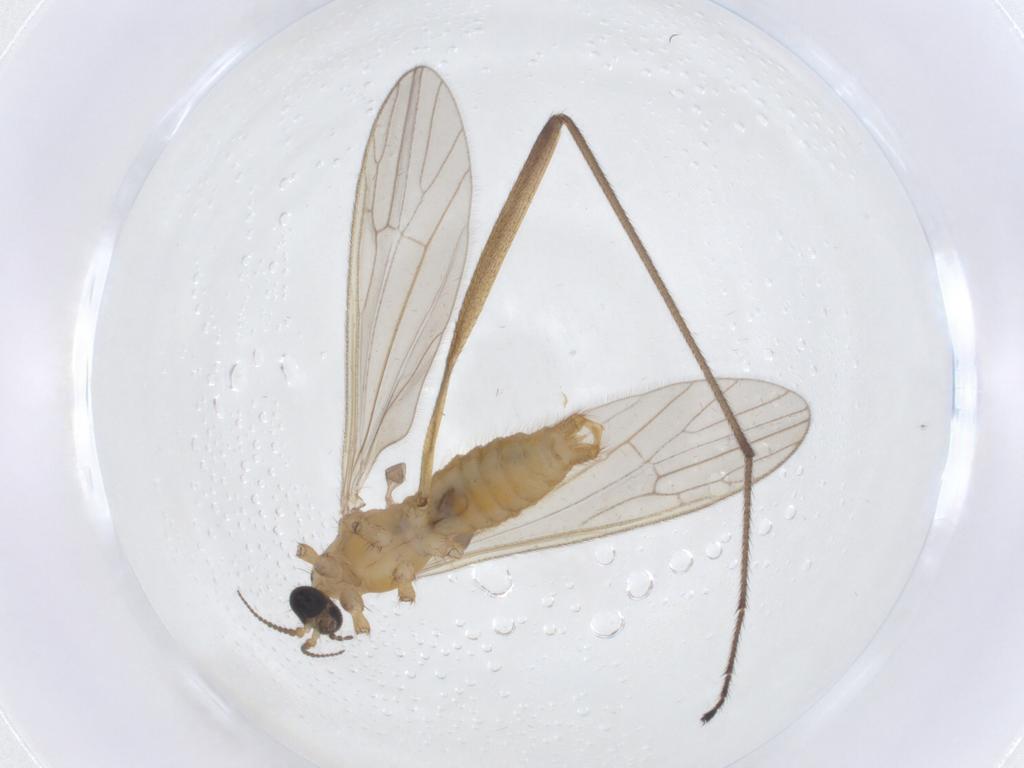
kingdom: Animalia
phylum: Arthropoda
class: Insecta
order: Diptera
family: Limoniidae
